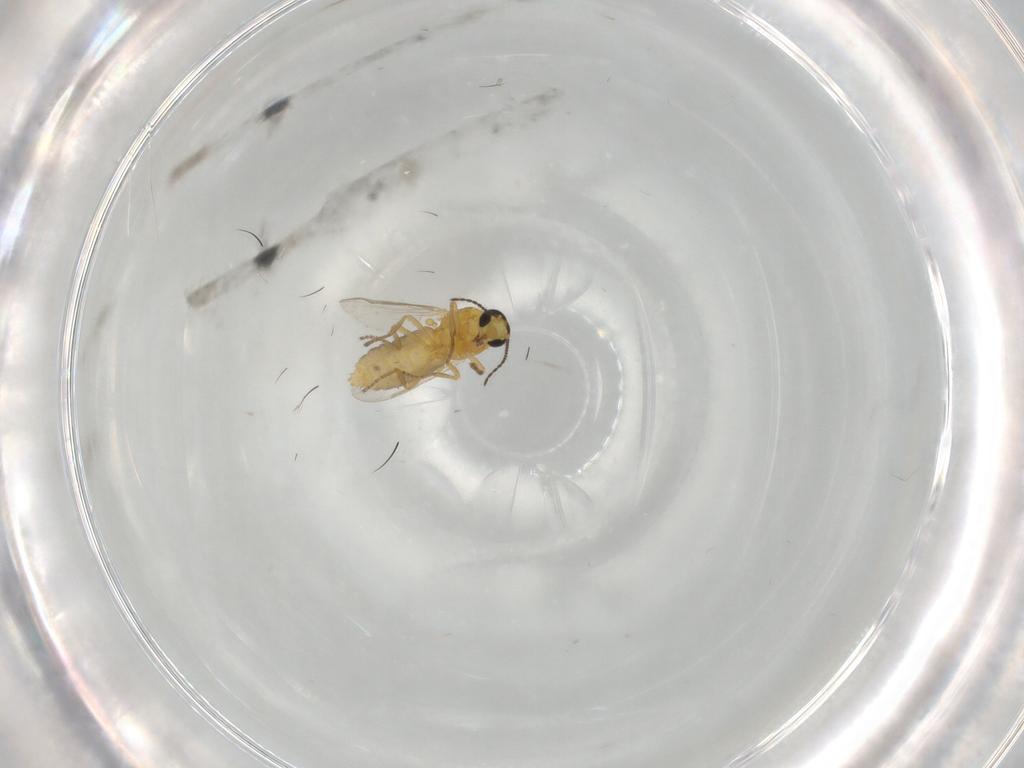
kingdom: Animalia
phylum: Arthropoda
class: Insecta
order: Diptera
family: Ceratopogonidae
